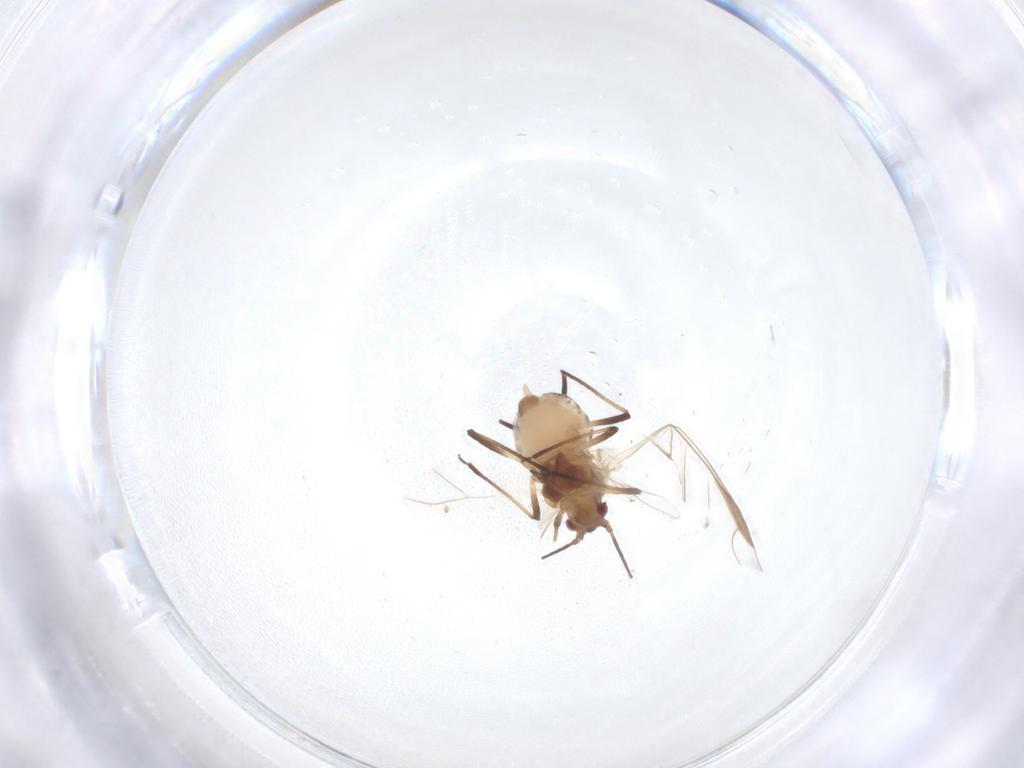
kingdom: Animalia
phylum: Arthropoda
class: Insecta
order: Hemiptera
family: Aphididae
